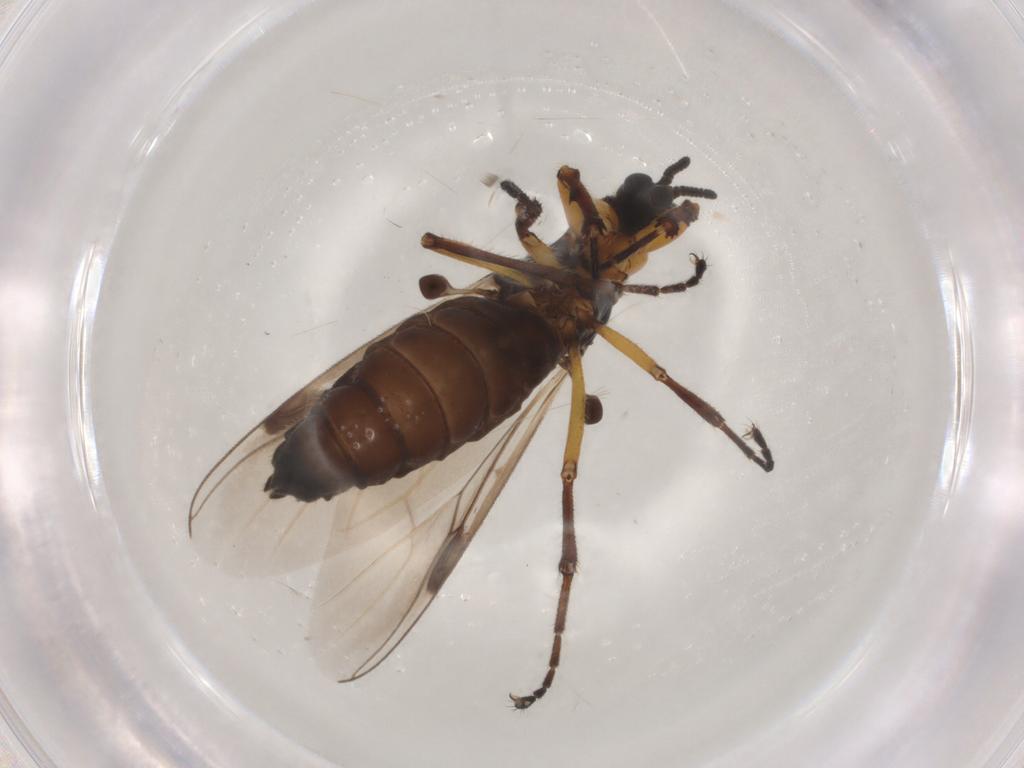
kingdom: Animalia
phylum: Arthropoda
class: Insecta
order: Diptera
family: Bibionidae
